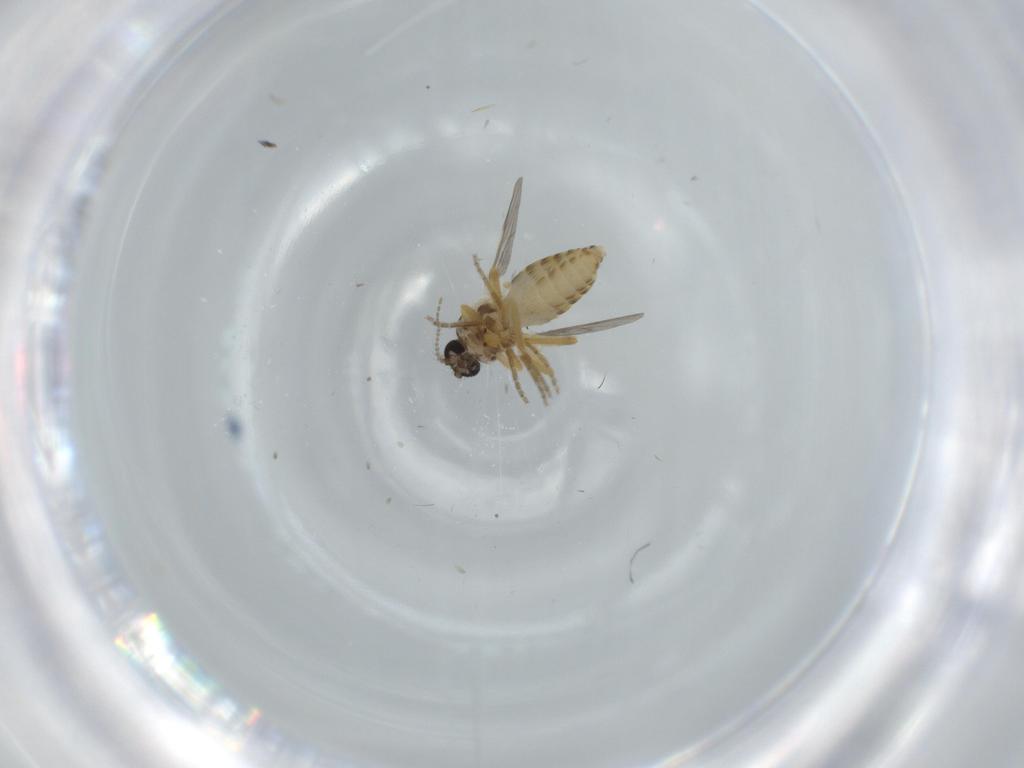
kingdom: Animalia
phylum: Arthropoda
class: Insecta
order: Diptera
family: Ceratopogonidae
